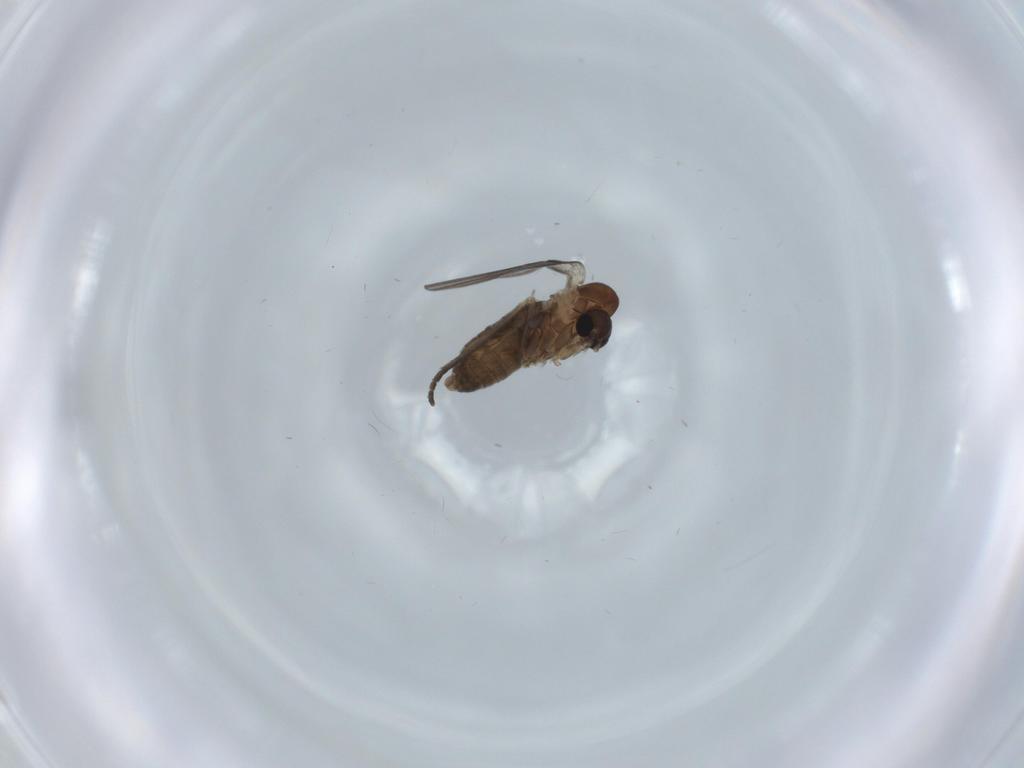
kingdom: Animalia
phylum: Arthropoda
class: Insecta
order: Diptera
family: Psychodidae
